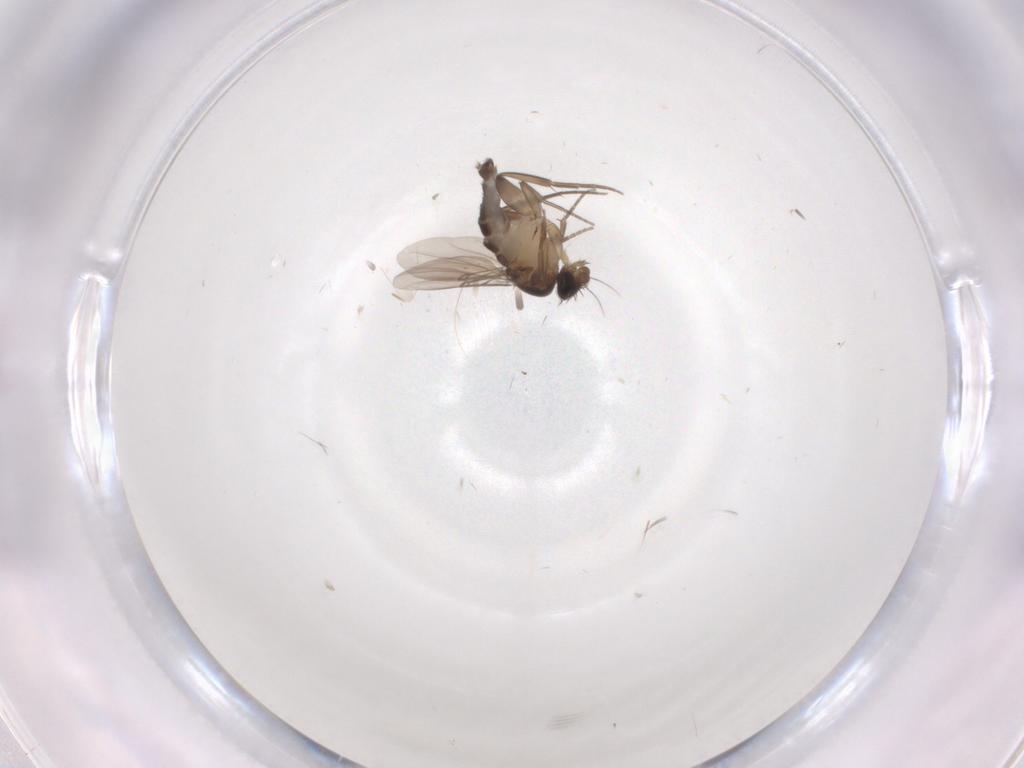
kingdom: Animalia
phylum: Arthropoda
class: Insecta
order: Diptera
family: Phoridae
